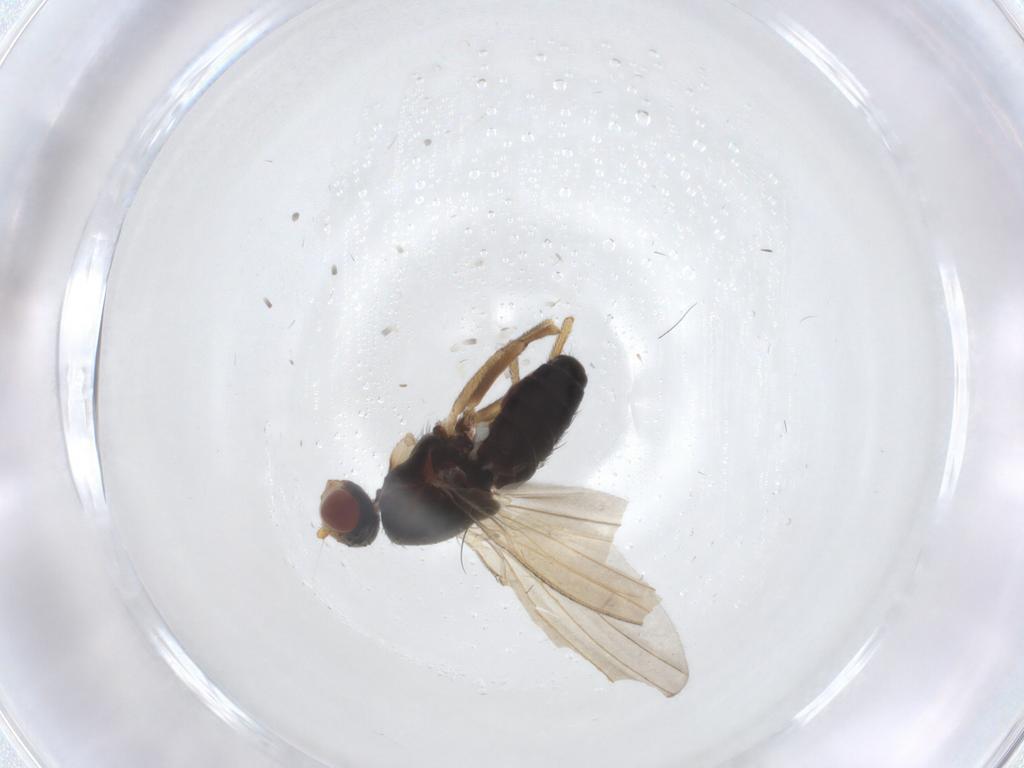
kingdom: Animalia
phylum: Arthropoda
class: Insecta
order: Diptera
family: Heleomyzidae
